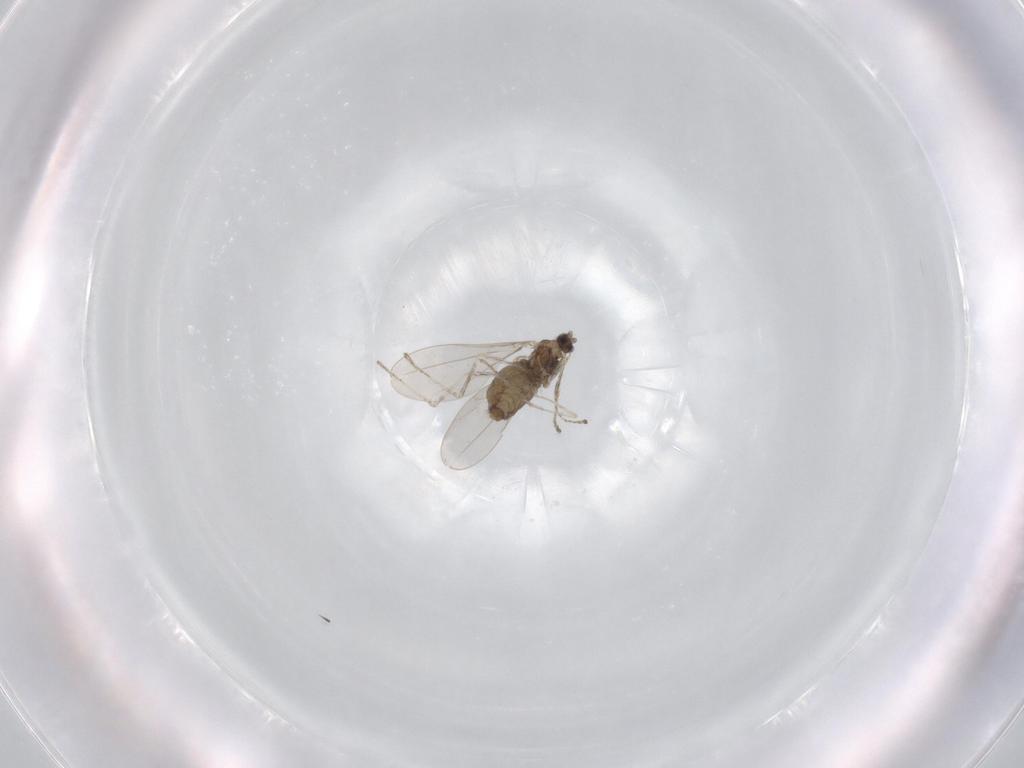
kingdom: Animalia
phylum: Arthropoda
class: Insecta
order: Diptera
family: Cecidomyiidae
